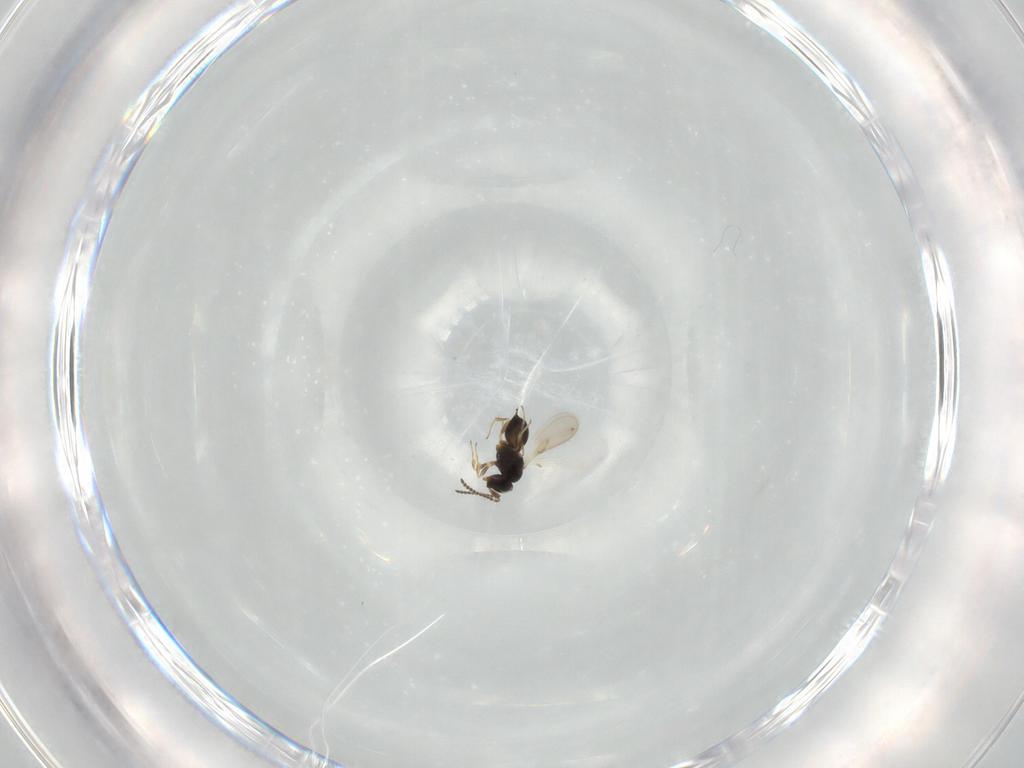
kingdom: Animalia
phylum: Arthropoda
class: Insecta
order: Hymenoptera
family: Scelionidae
